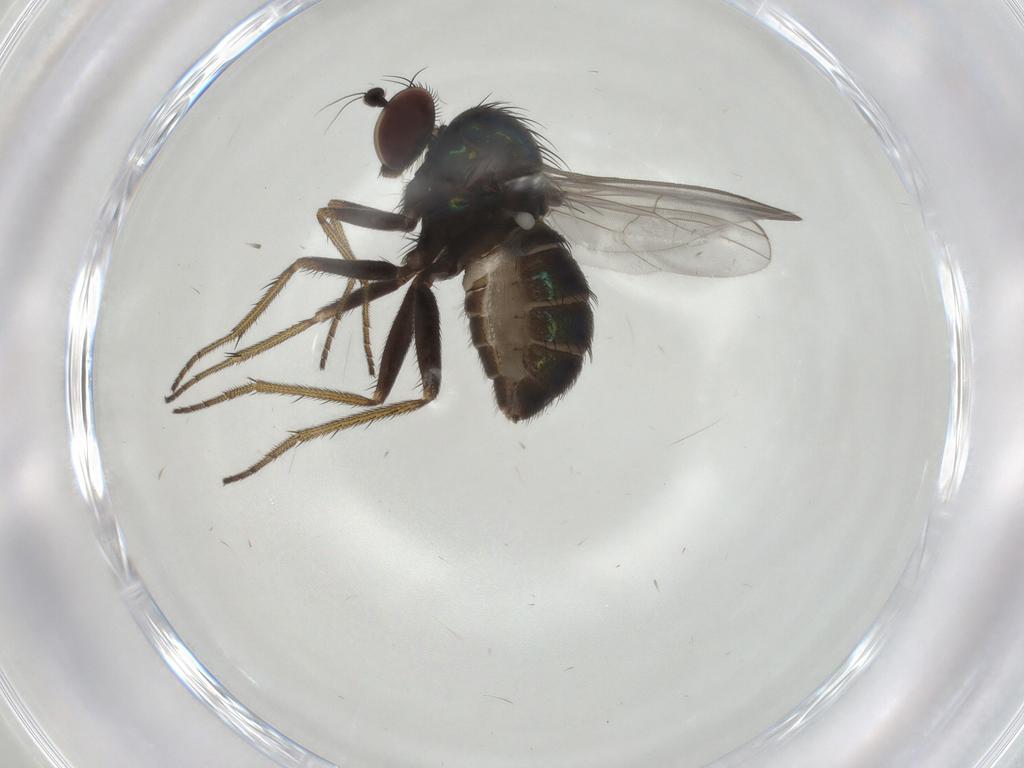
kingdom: Animalia
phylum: Arthropoda
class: Insecta
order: Diptera
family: Dolichopodidae
